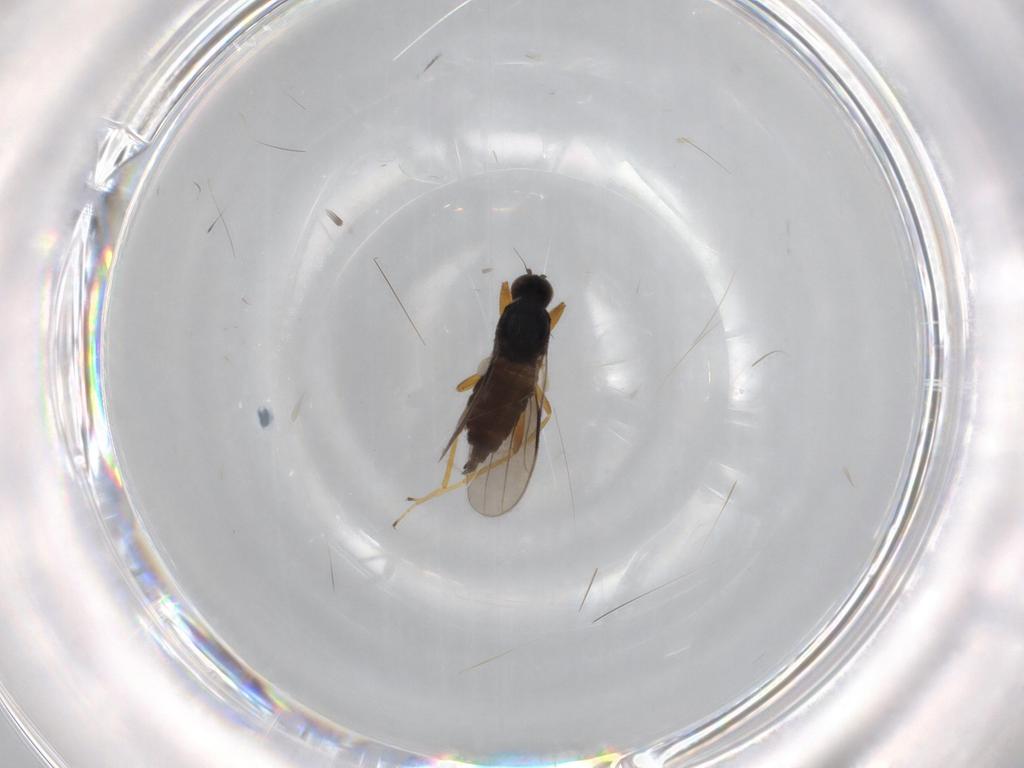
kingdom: Animalia
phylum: Arthropoda
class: Insecta
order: Diptera
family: Hybotidae
